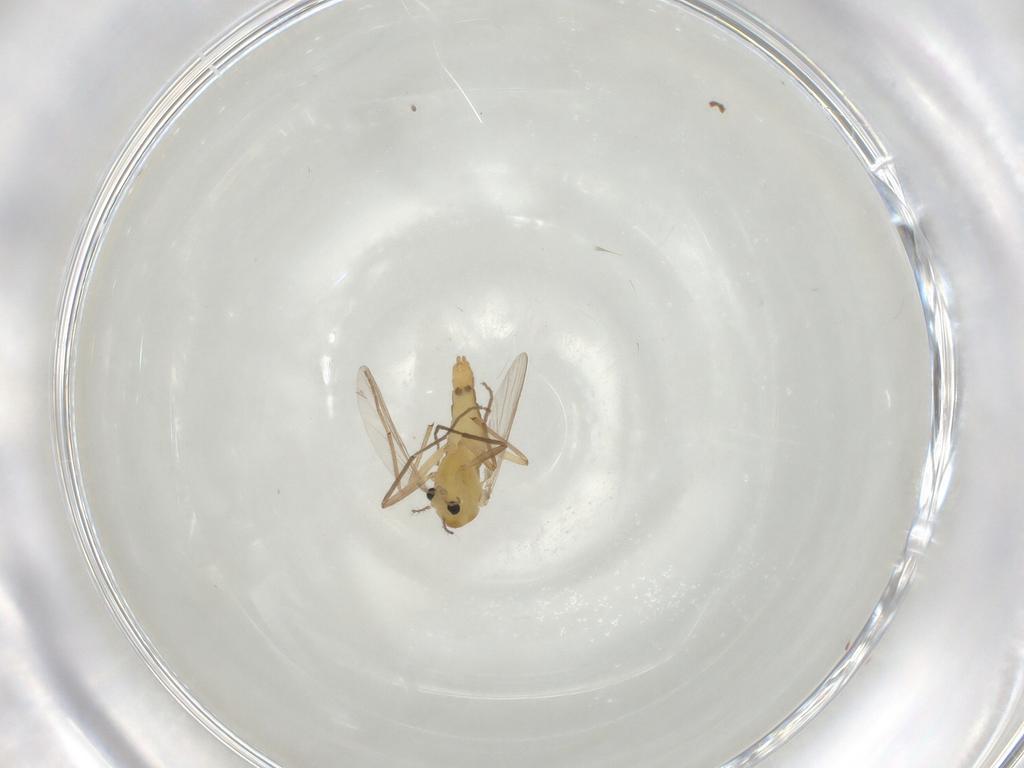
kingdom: Animalia
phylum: Arthropoda
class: Insecta
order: Diptera
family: Chironomidae
